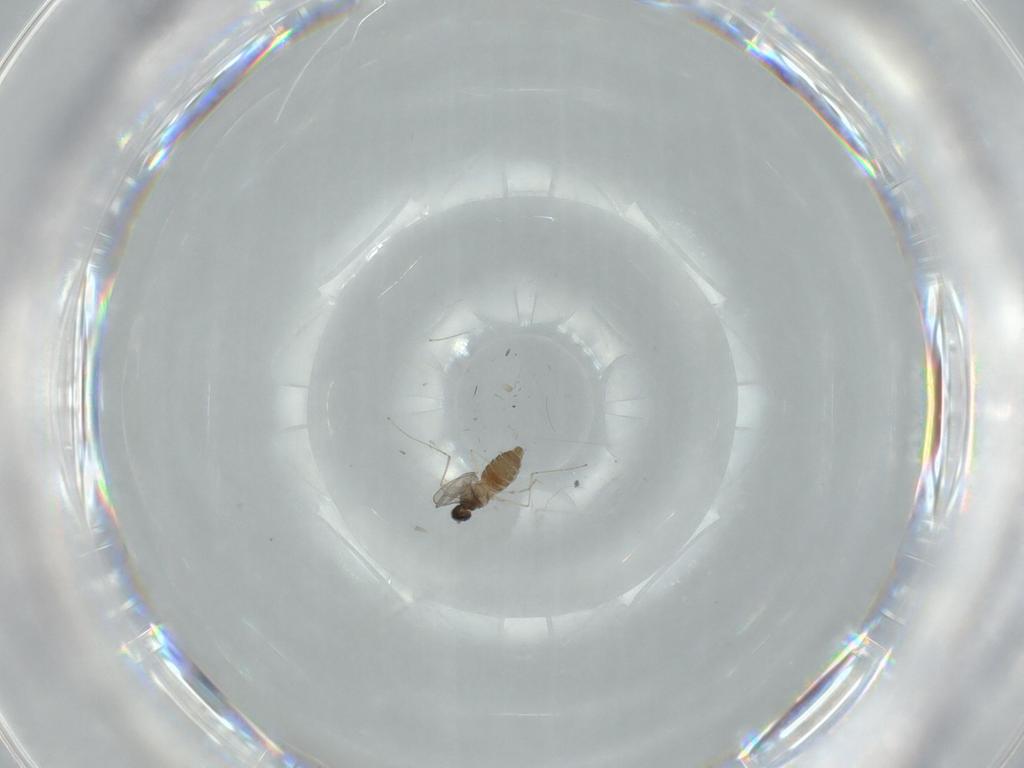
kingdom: Animalia
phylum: Arthropoda
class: Insecta
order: Diptera
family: Cecidomyiidae
